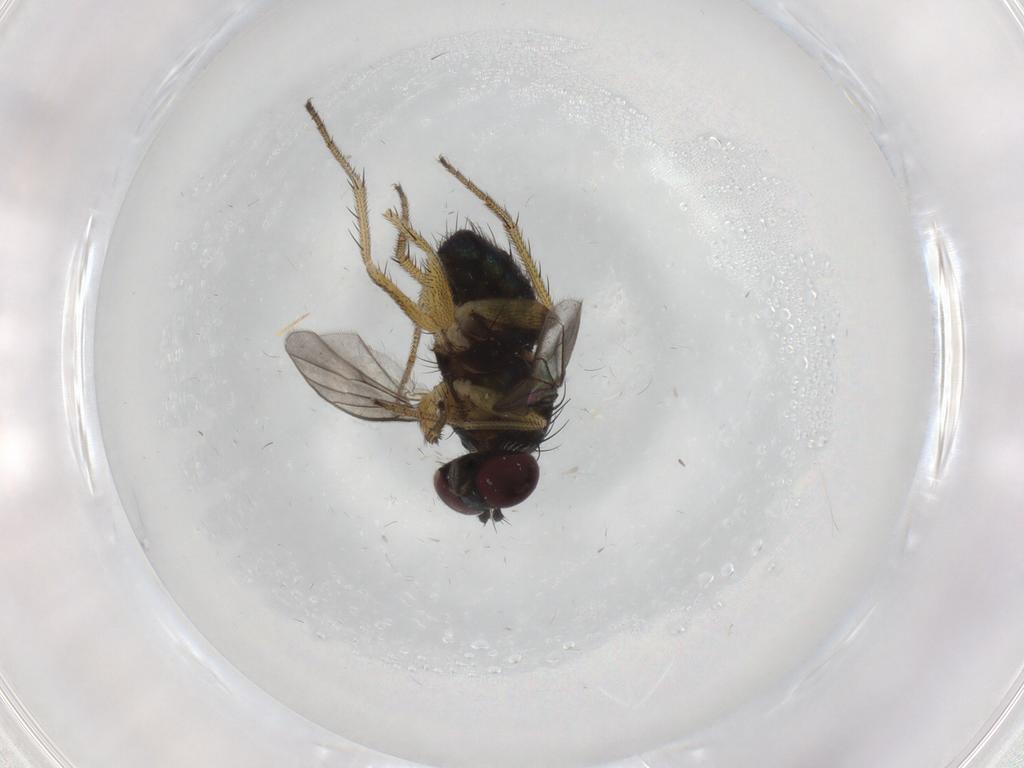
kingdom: Animalia
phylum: Arthropoda
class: Insecta
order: Diptera
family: Dolichopodidae
